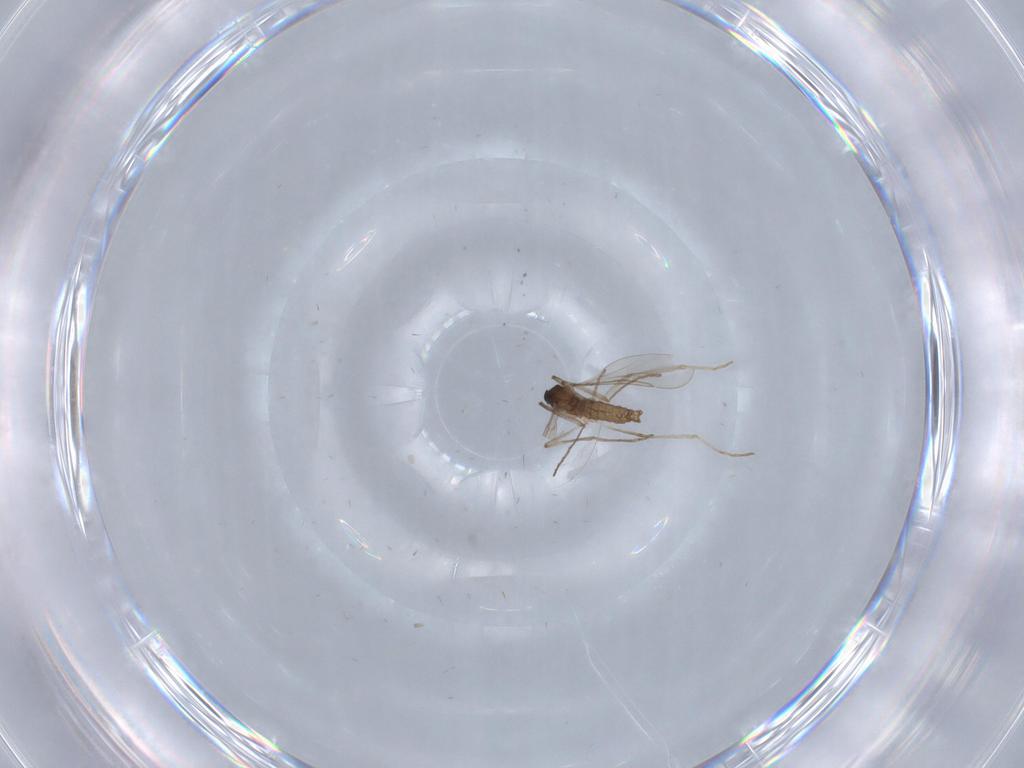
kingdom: Animalia
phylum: Arthropoda
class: Insecta
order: Diptera
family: Cecidomyiidae
